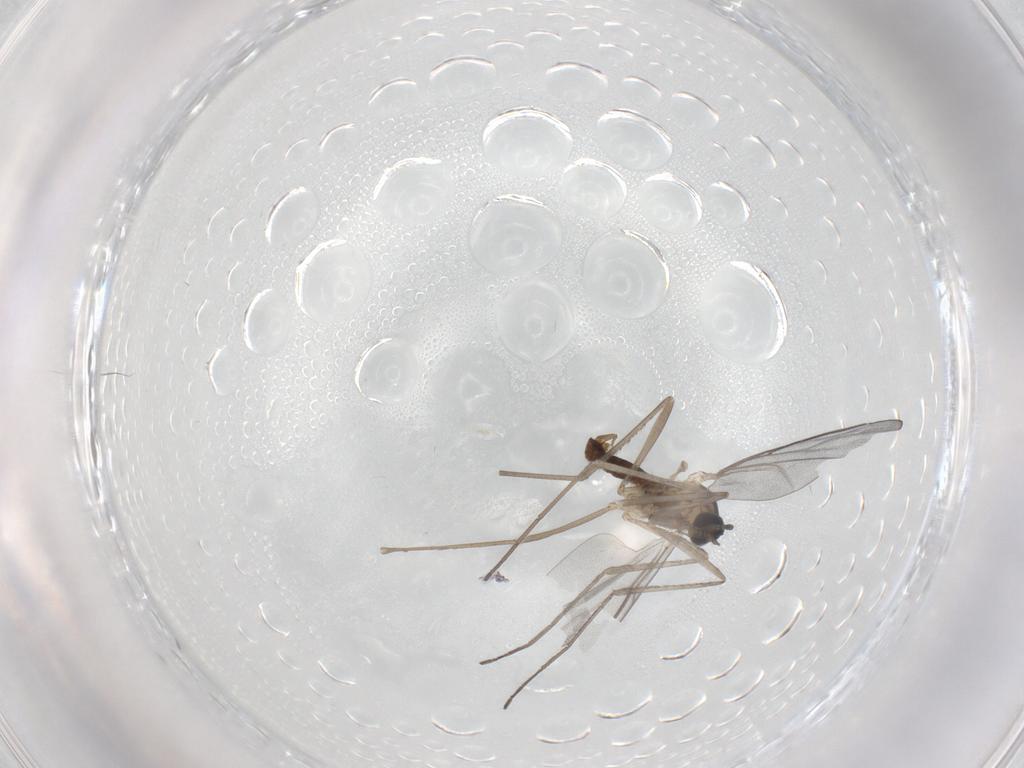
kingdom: Animalia
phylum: Arthropoda
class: Insecta
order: Diptera
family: Cecidomyiidae
